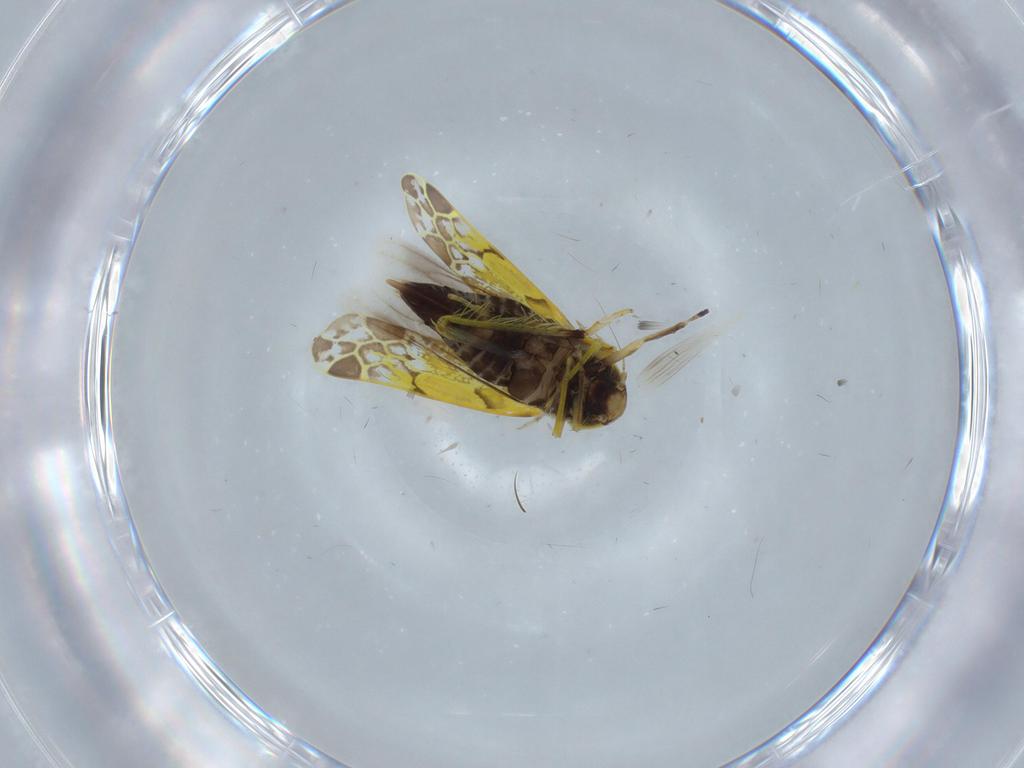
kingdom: Animalia
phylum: Arthropoda
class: Insecta
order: Hemiptera
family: Cicadellidae
